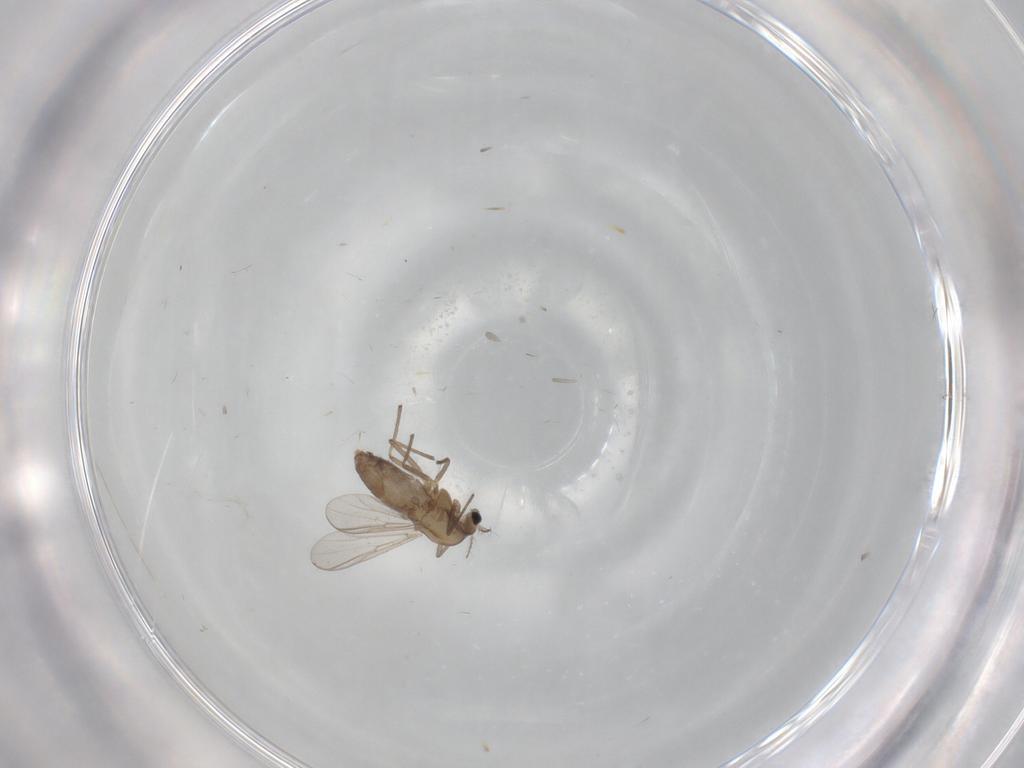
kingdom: Animalia
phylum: Arthropoda
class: Insecta
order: Diptera
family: Chironomidae
